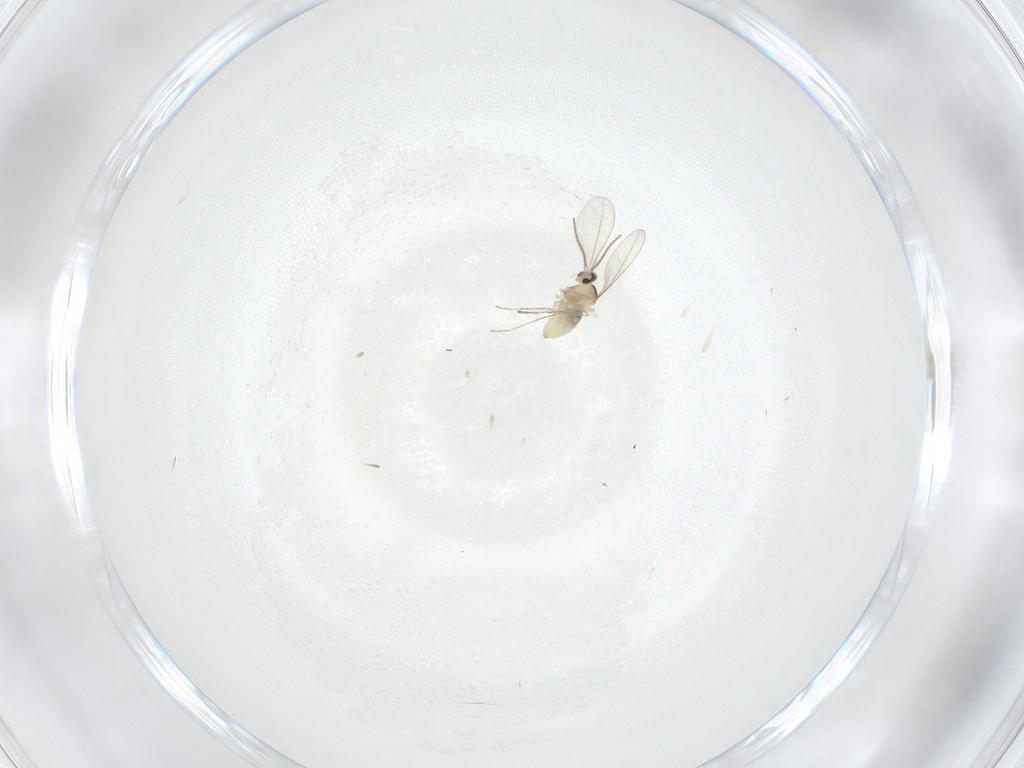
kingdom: Animalia
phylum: Arthropoda
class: Insecta
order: Diptera
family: Tabanidae
